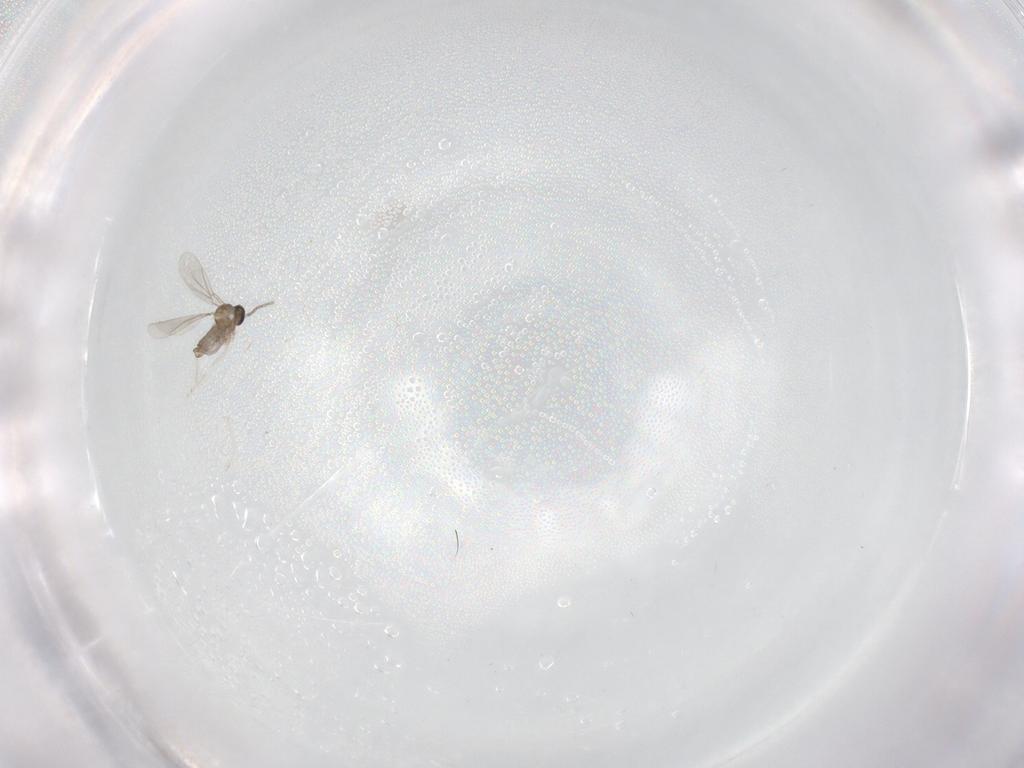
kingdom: Animalia
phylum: Arthropoda
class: Insecta
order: Diptera
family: Cecidomyiidae
